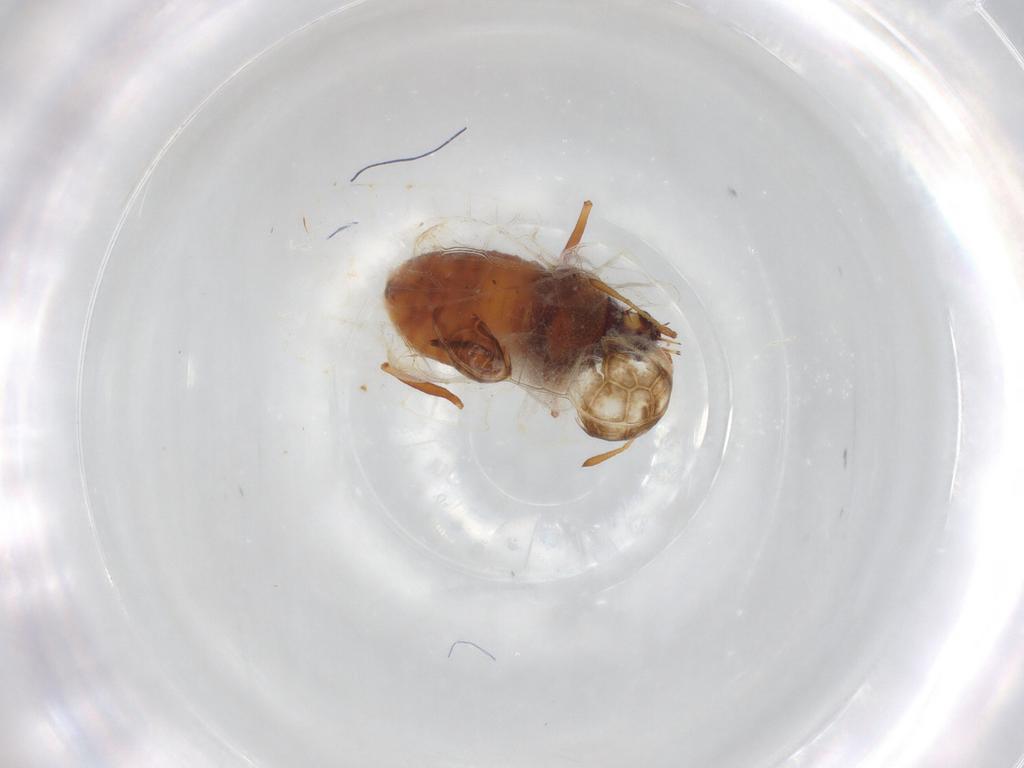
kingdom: Animalia
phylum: Arthropoda
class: Insecta
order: Hemiptera
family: Tingidae
